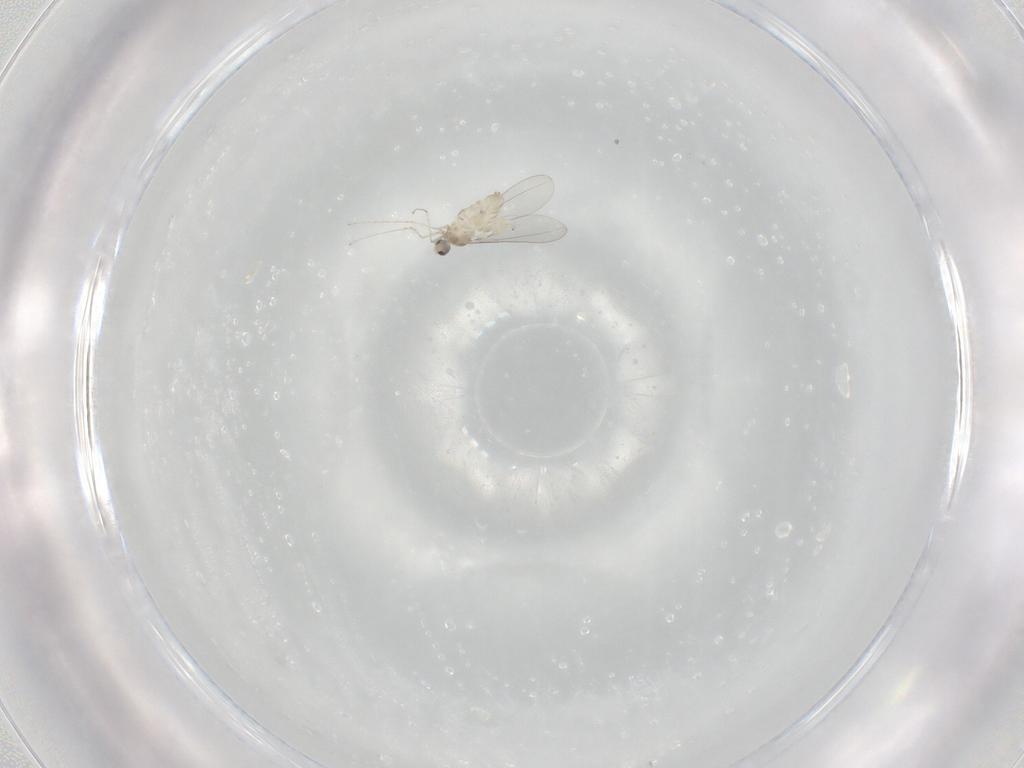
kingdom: Animalia
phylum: Arthropoda
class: Insecta
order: Diptera
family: Cecidomyiidae
